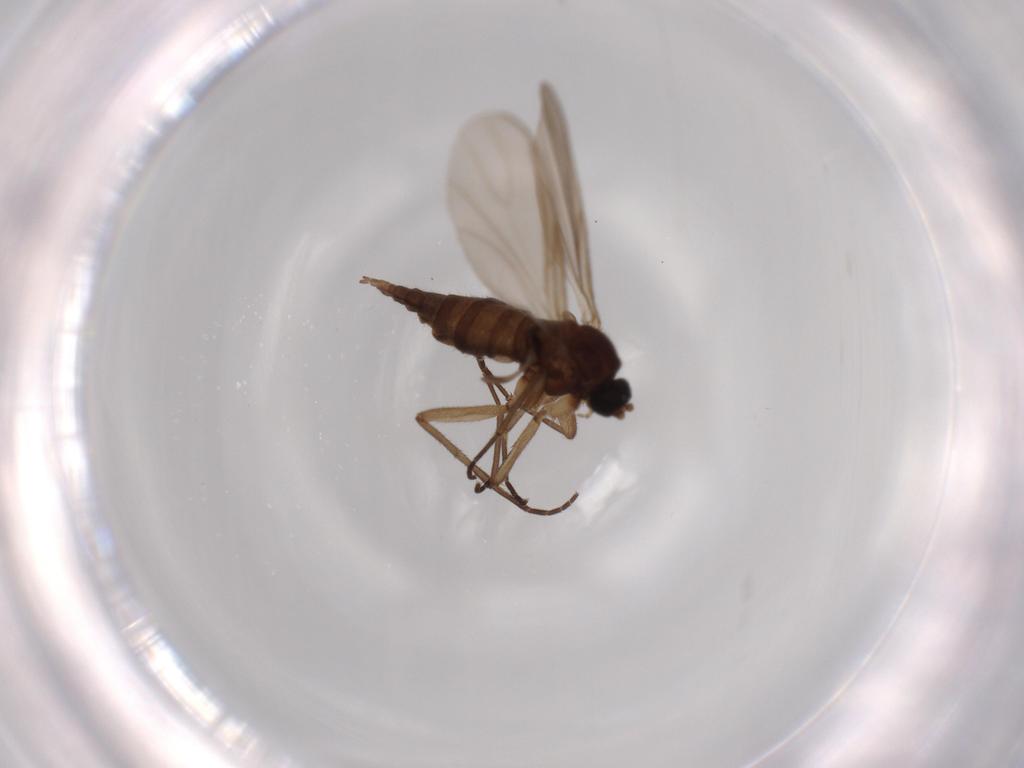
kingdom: Animalia
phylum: Arthropoda
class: Insecta
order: Diptera
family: Sciaridae
